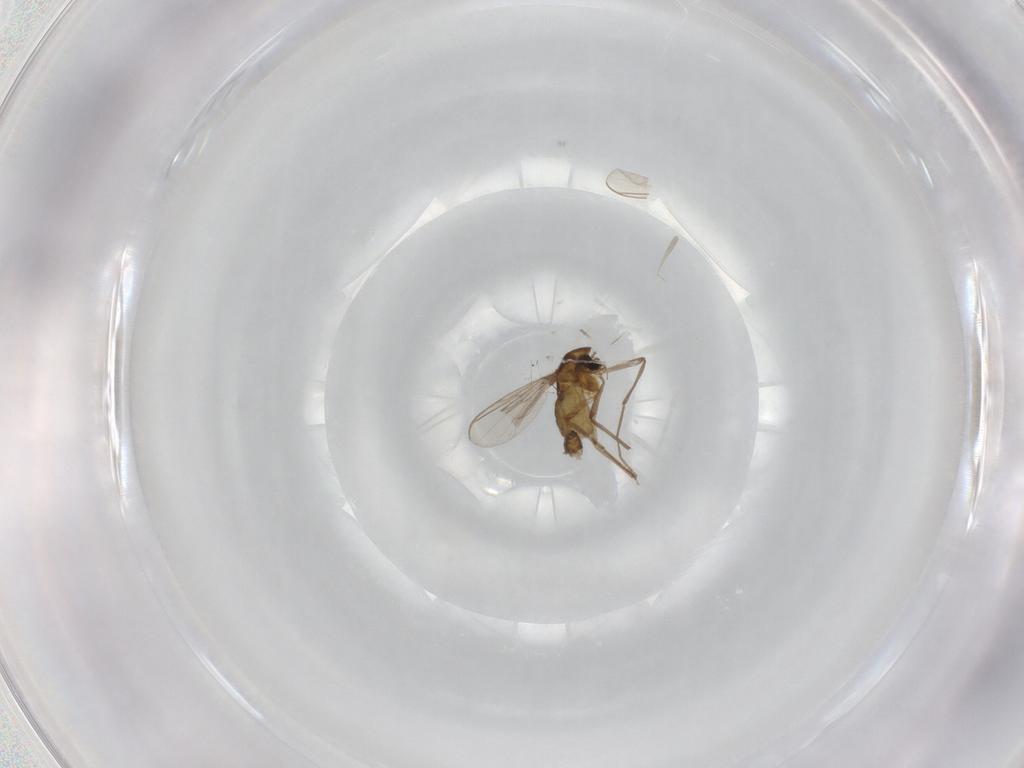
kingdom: Animalia
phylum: Arthropoda
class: Insecta
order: Diptera
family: Chironomidae
